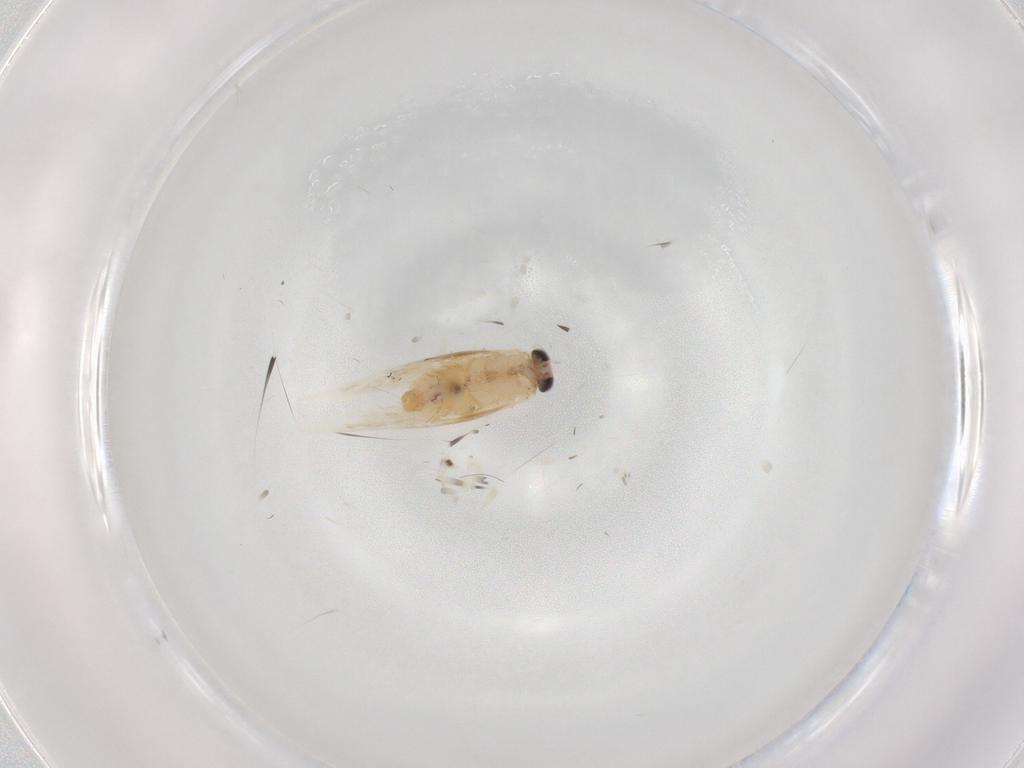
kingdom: Animalia
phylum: Arthropoda
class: Insecta
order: Lepidoptera
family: Nepticulidae
